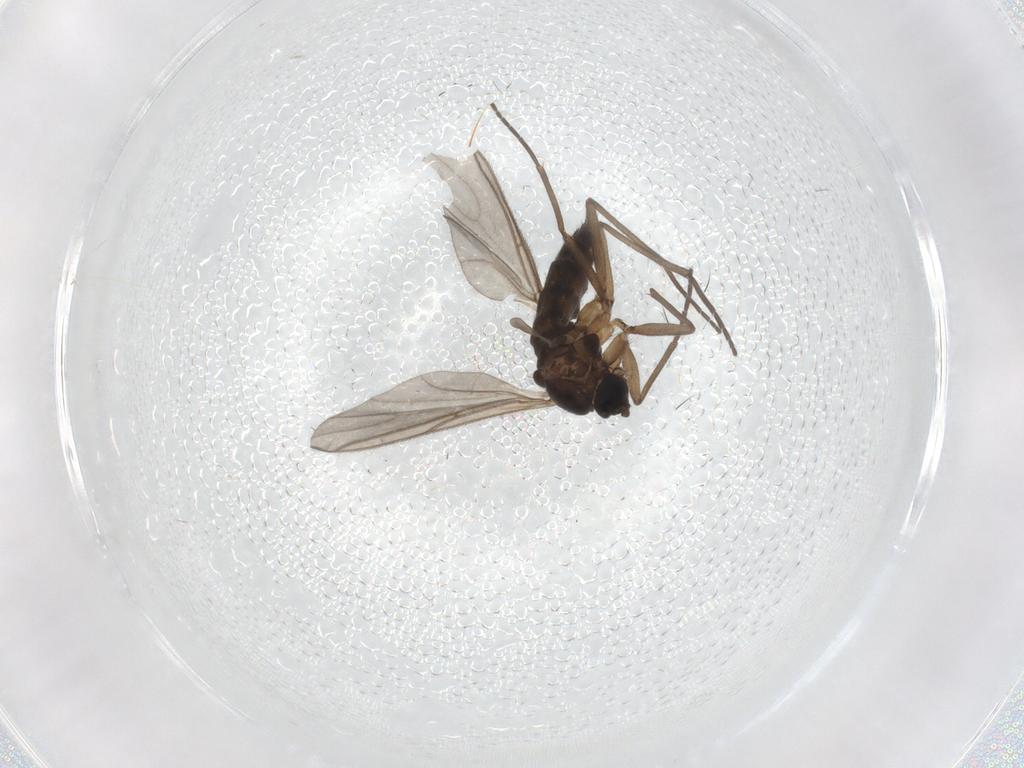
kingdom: Animalia
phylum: Arthropoda
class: Insecta
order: Diptera
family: Sciaridae
